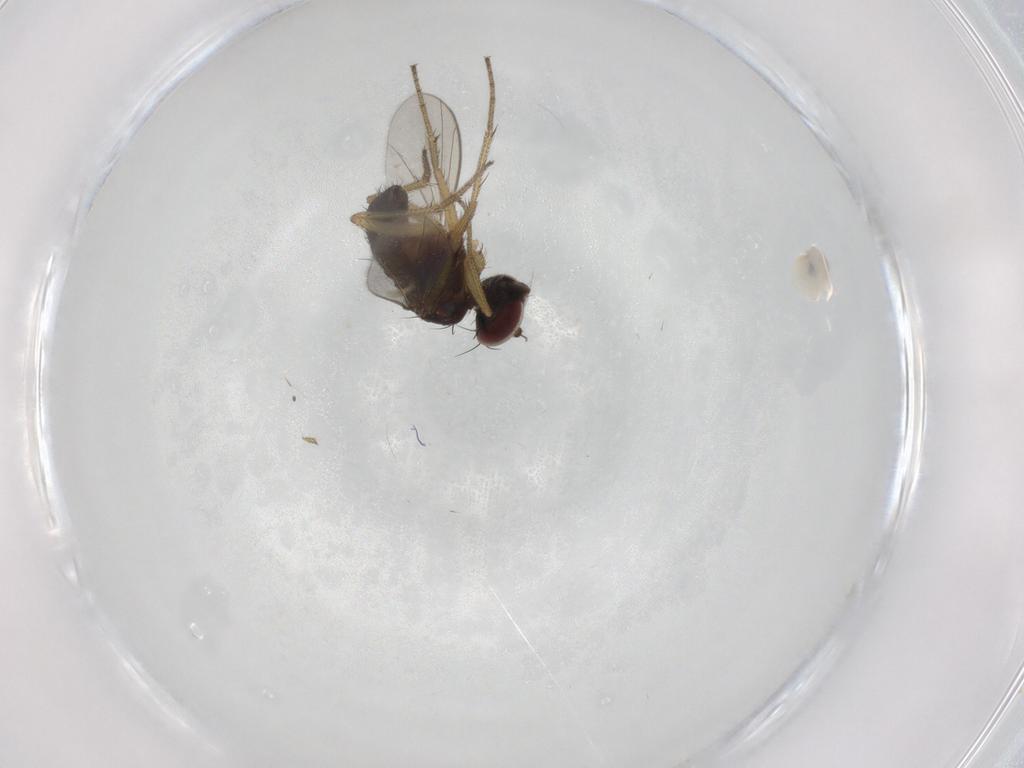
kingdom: Animalia
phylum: Arthropoda
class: Insecta
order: Diptera
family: Dolichopodidae
